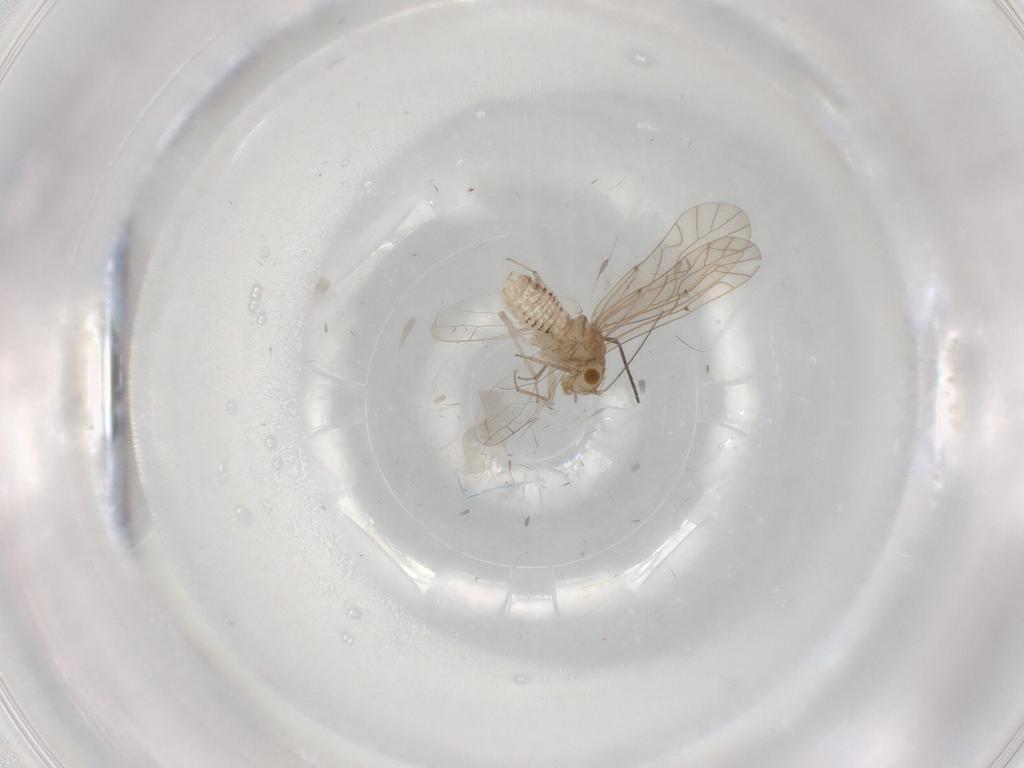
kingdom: Animalia
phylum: Arthropoda
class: Insecta
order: Psocodea
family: Lachesillidae
